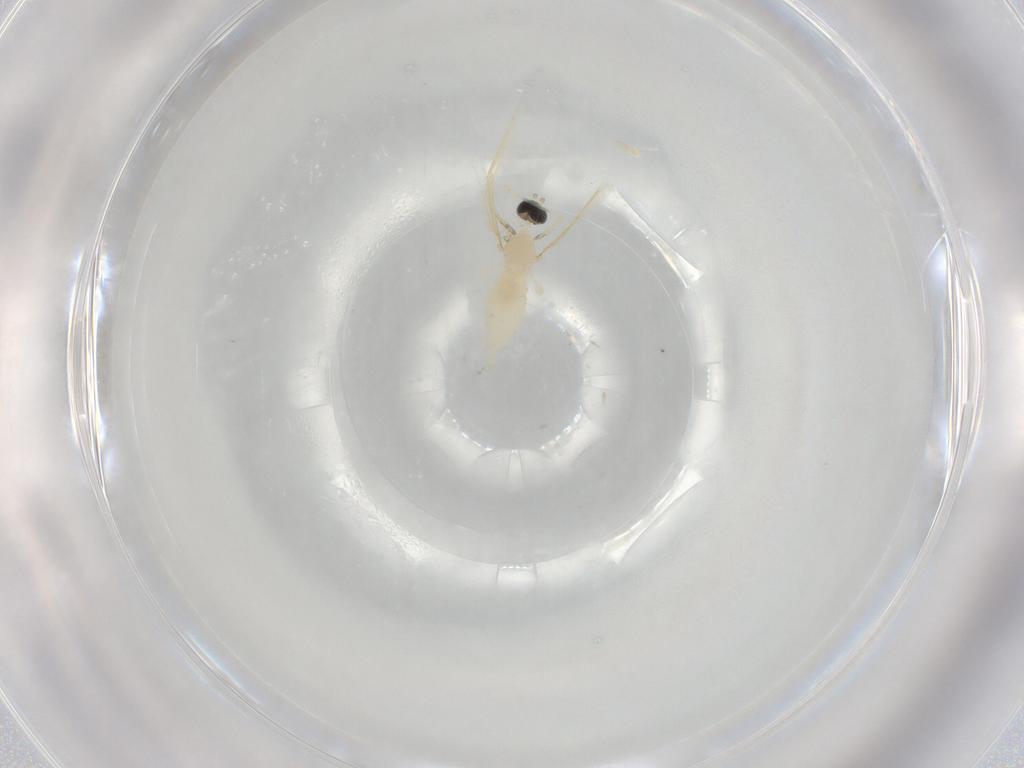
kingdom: Animalia
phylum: Arthropoda
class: Insecta
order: Diptera
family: Cecidomyiidae
